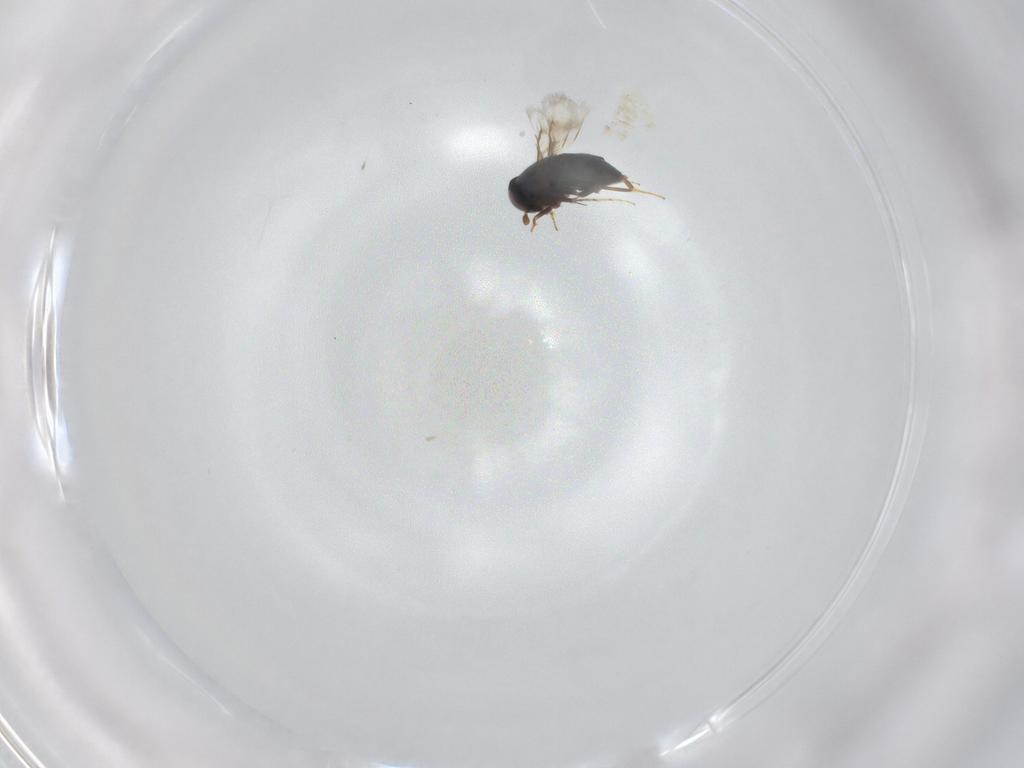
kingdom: Animalia
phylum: Arthropoda
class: Insecta
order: Hymenoptera
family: Signiphoridae
